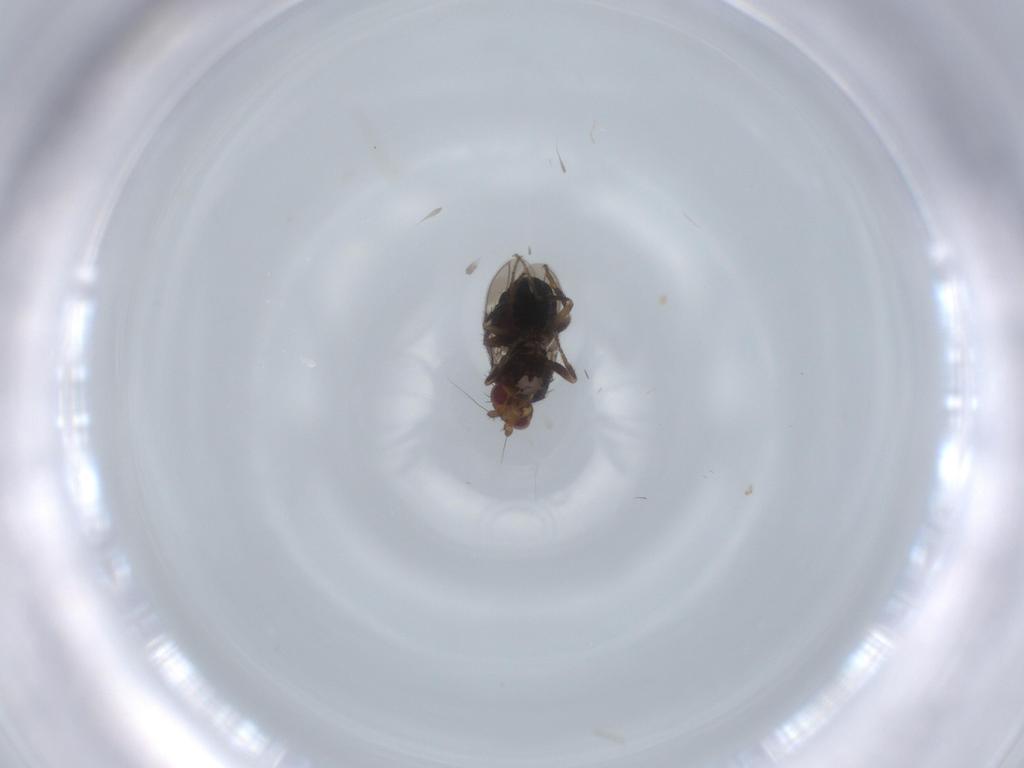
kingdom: Animalia
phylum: Arthropoda
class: Insecta
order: Diptera
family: Sphaeroceridae
